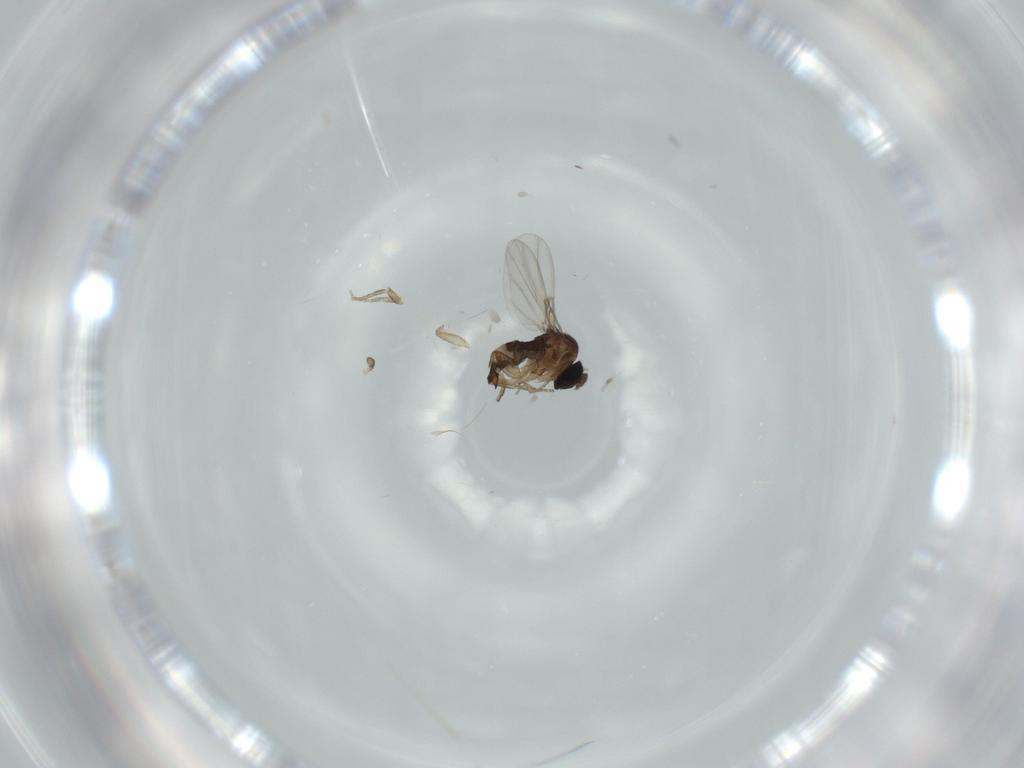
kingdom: Animalia
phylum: Arthropoda
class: Insecta
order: Diptera
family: Phoridae
